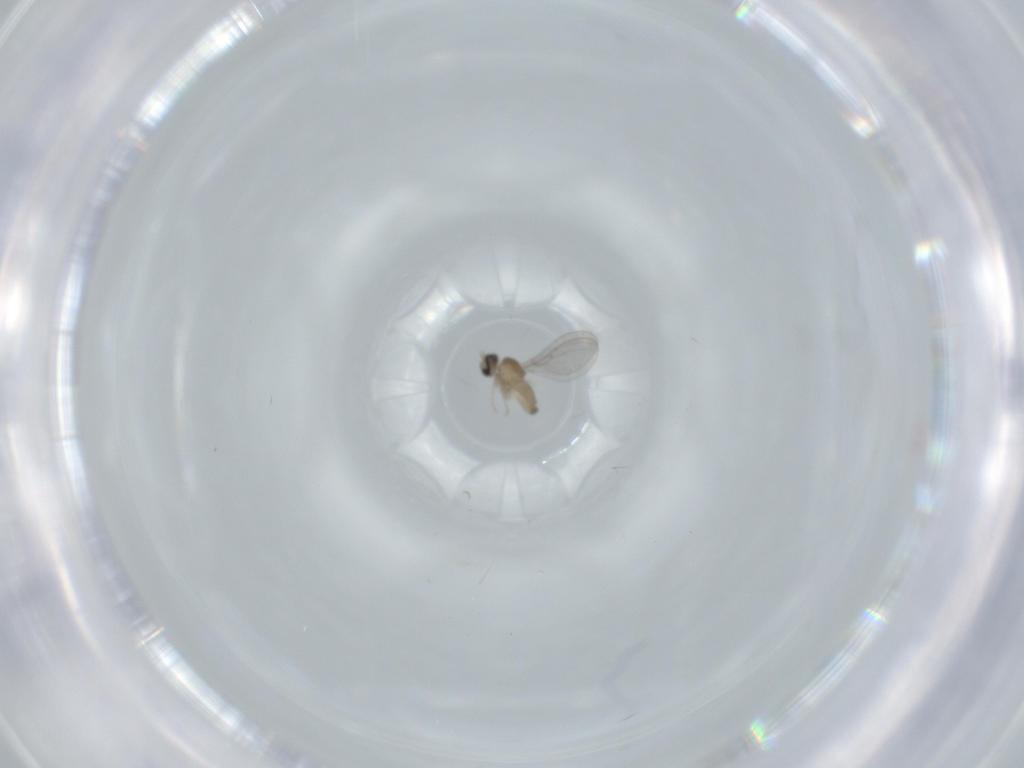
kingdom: Animalia
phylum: Arthropoda
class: Insecta
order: Diptera
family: Cecidomyiidae
